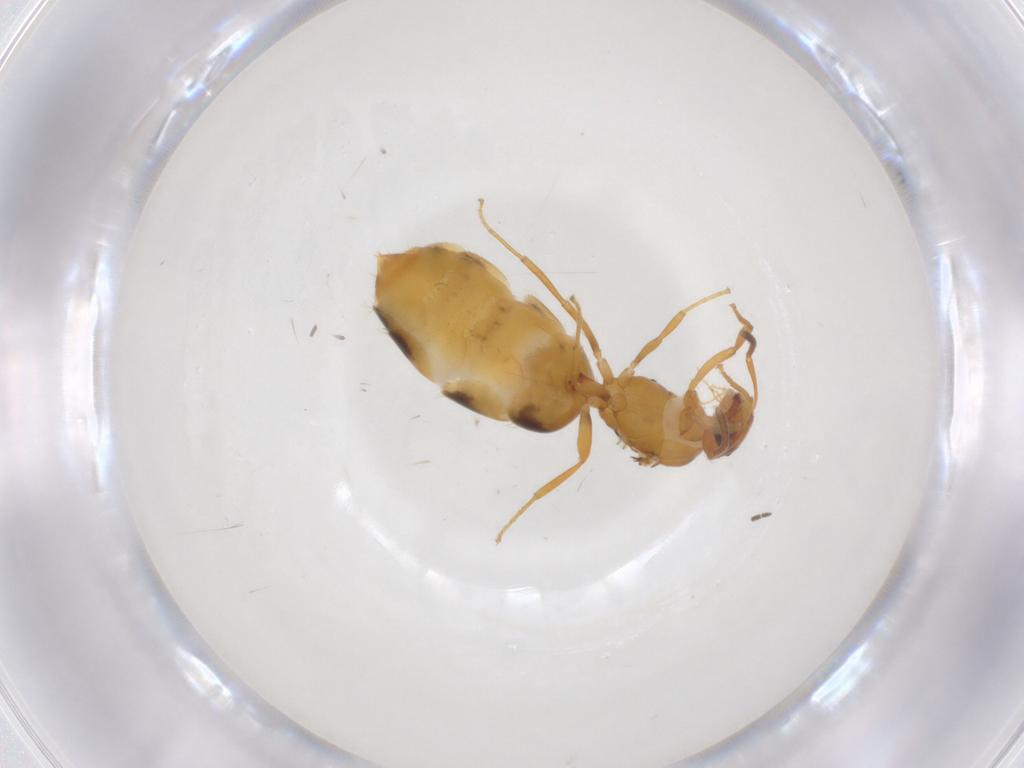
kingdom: Animalia
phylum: Arthropoda
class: Insecta
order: Hymenoptera
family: Formicidae
